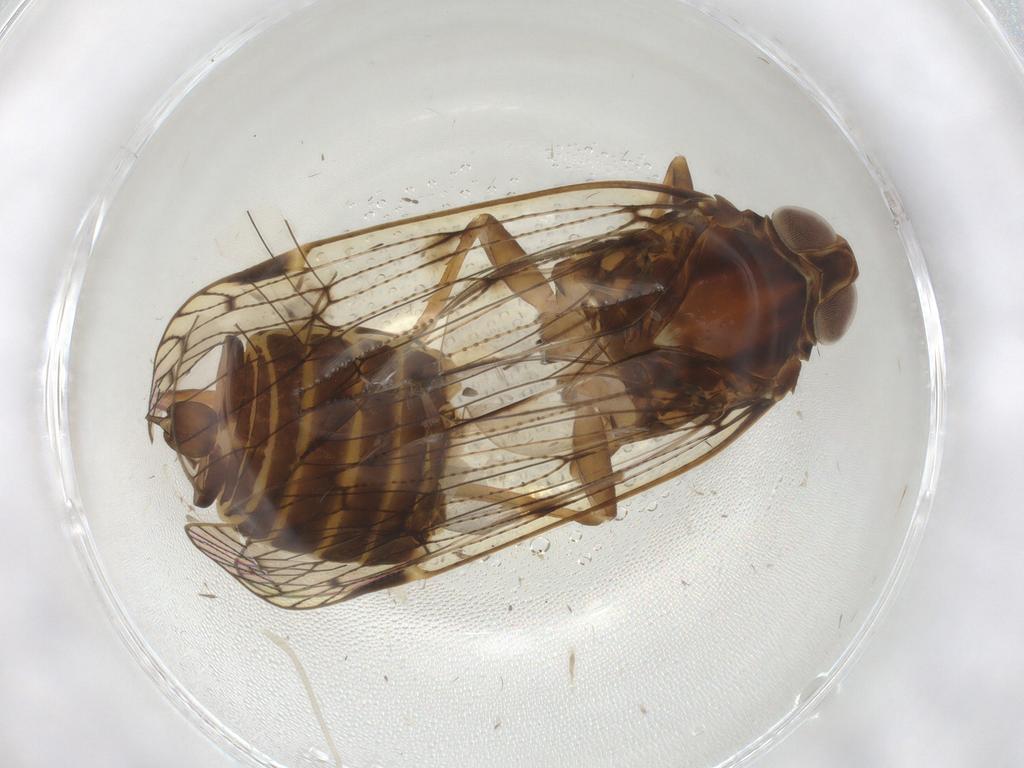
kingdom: Animalia
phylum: Arthropoda
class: Insecta
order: Hemiptera
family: Cixiidae
